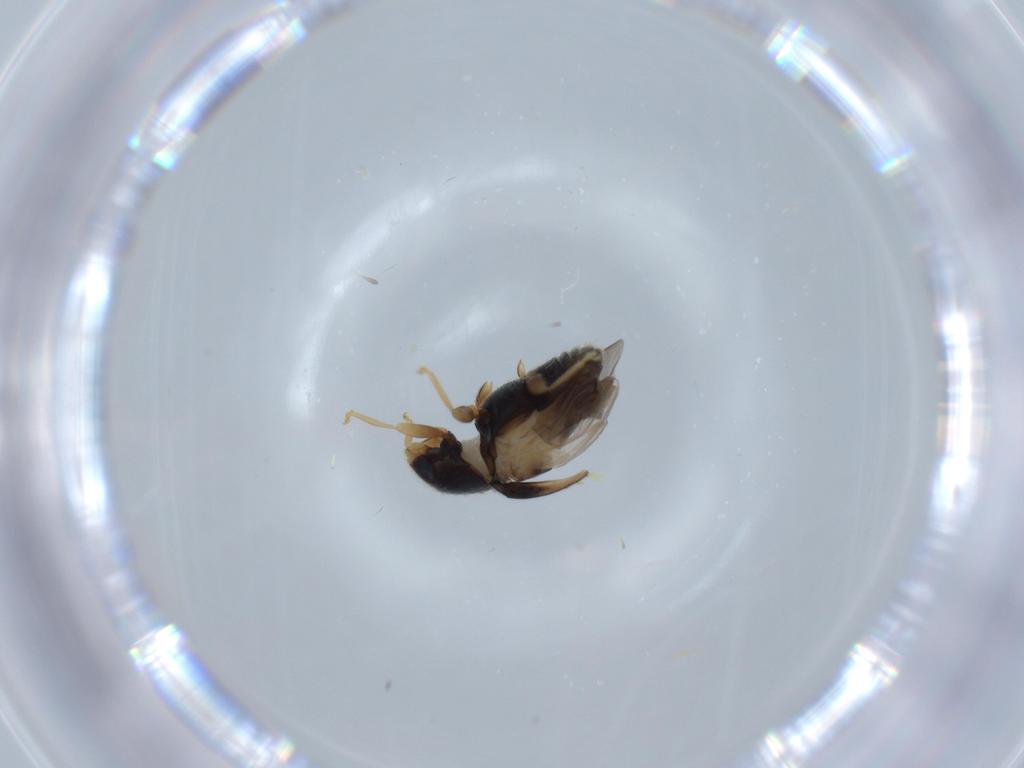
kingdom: Animalia
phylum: Arthropoda
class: Insecta
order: Coleoptera
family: Coccinellidae
